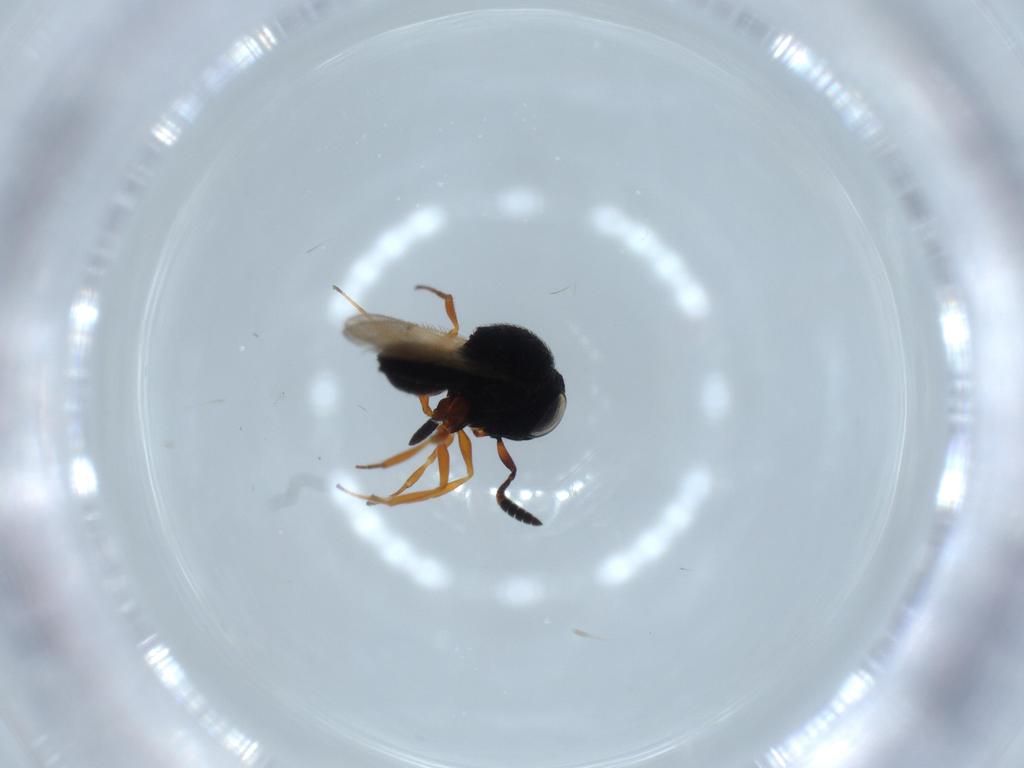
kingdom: Animalia
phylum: Arthropoda
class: Insecta
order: Hymenoptera
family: Scelionidae
